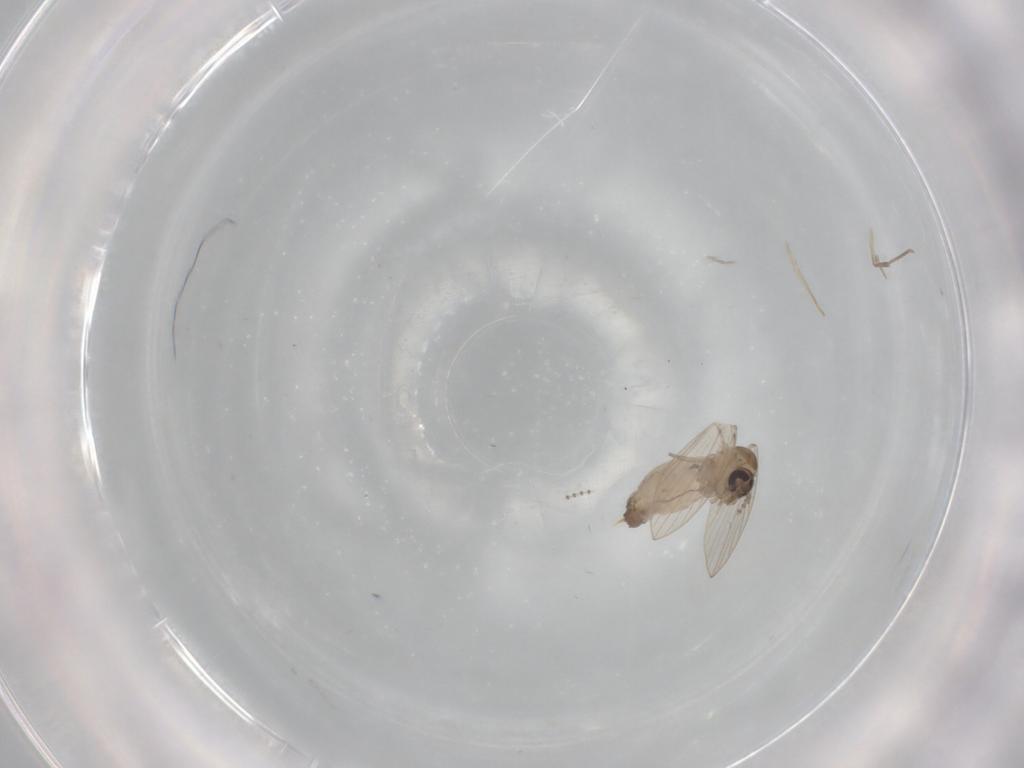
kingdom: Animalia
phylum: Arthropoda
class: Insecta
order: Diptera
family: Psychodidae
